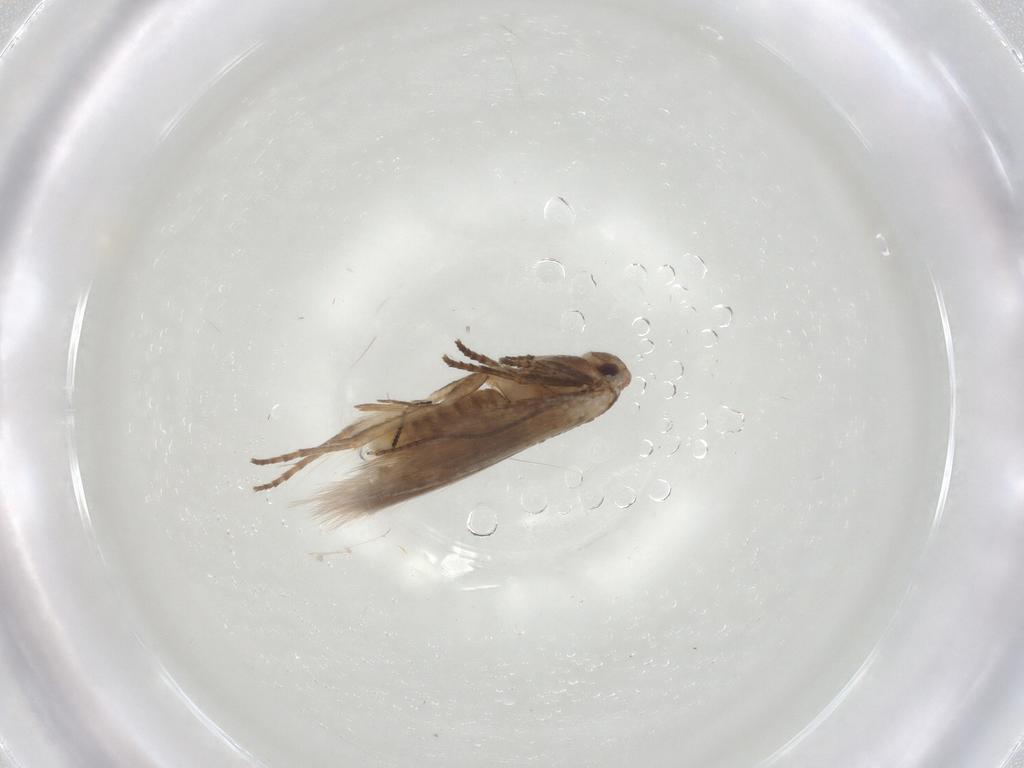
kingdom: Animalia
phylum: Arthropoda
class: Insecta
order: Lepidoptera
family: Bucculatricidae
